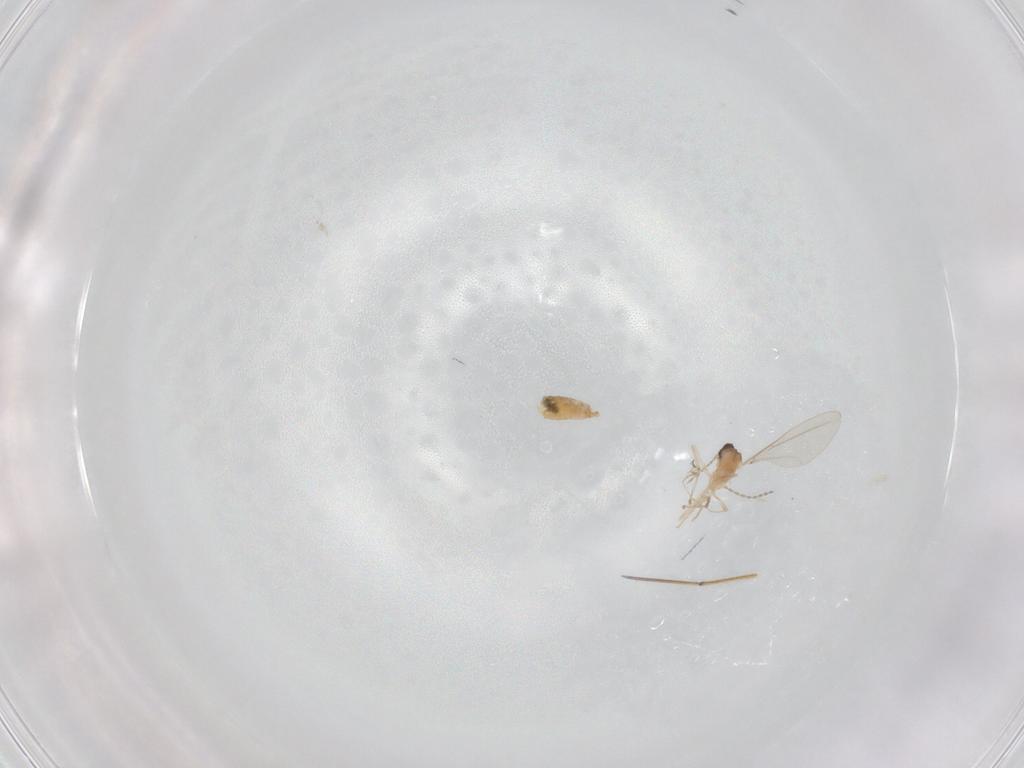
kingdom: Animalia
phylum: Arthropoda
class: Insecta
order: Diptera
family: Cecidomyiidae
